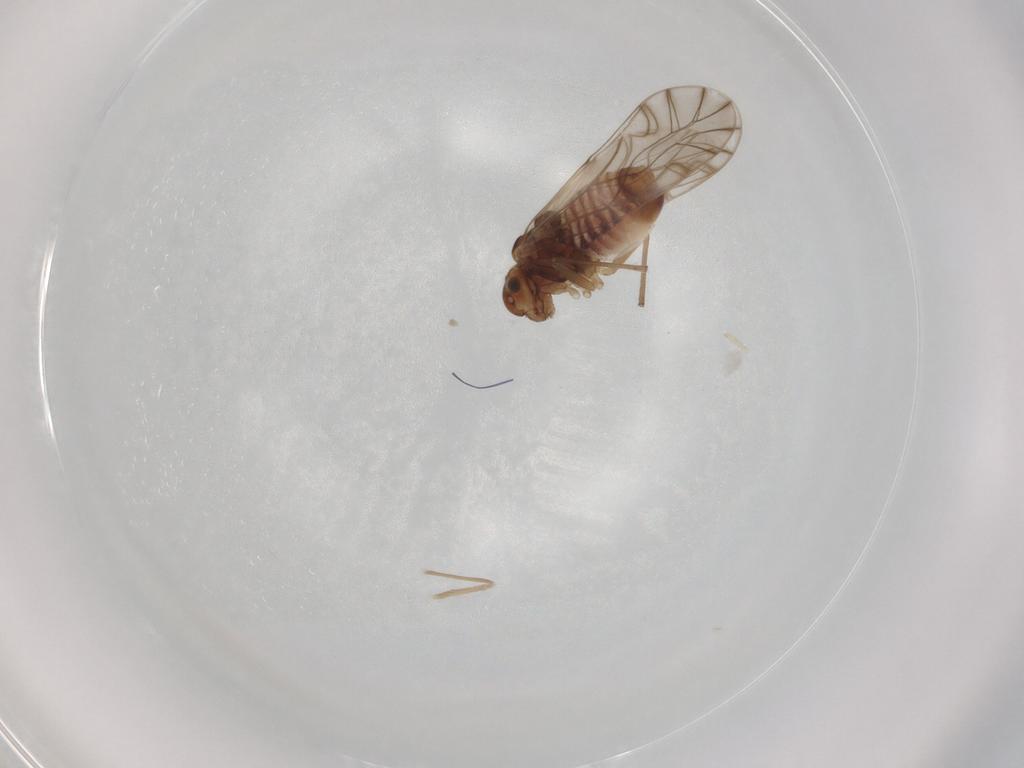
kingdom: Animalia
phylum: Arthropoda
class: Insecta
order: Psocodea
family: Lachesillidae
